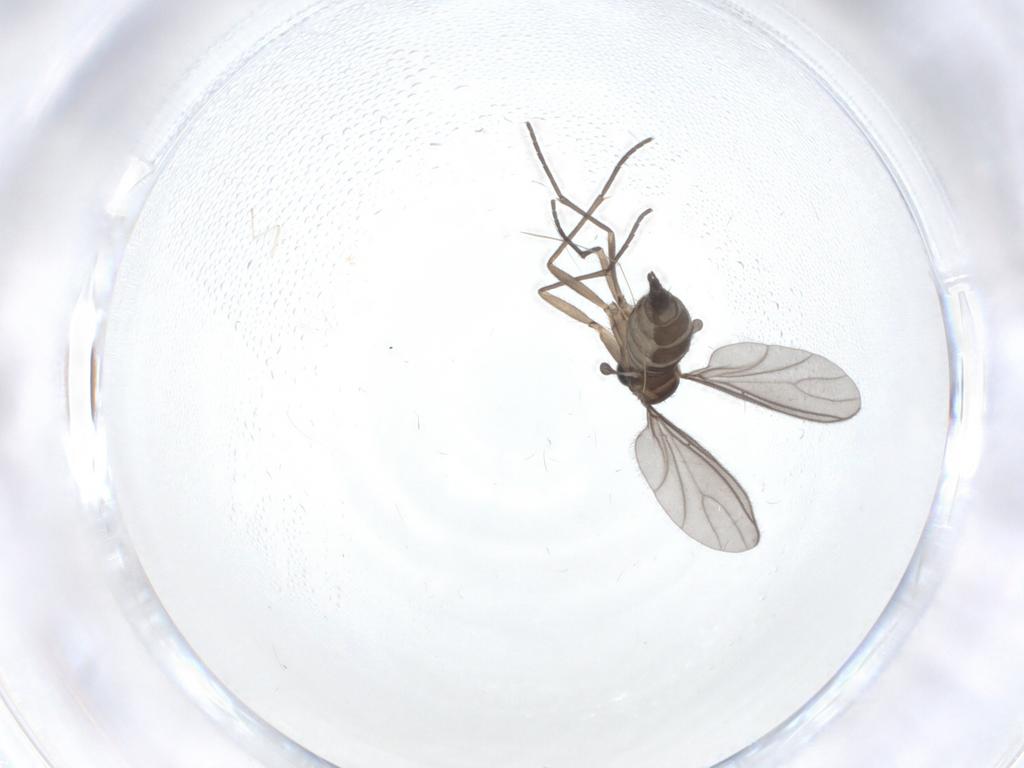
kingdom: Animalia
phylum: Arthropoda
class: Insecta
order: Diptera
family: Sciaridae
